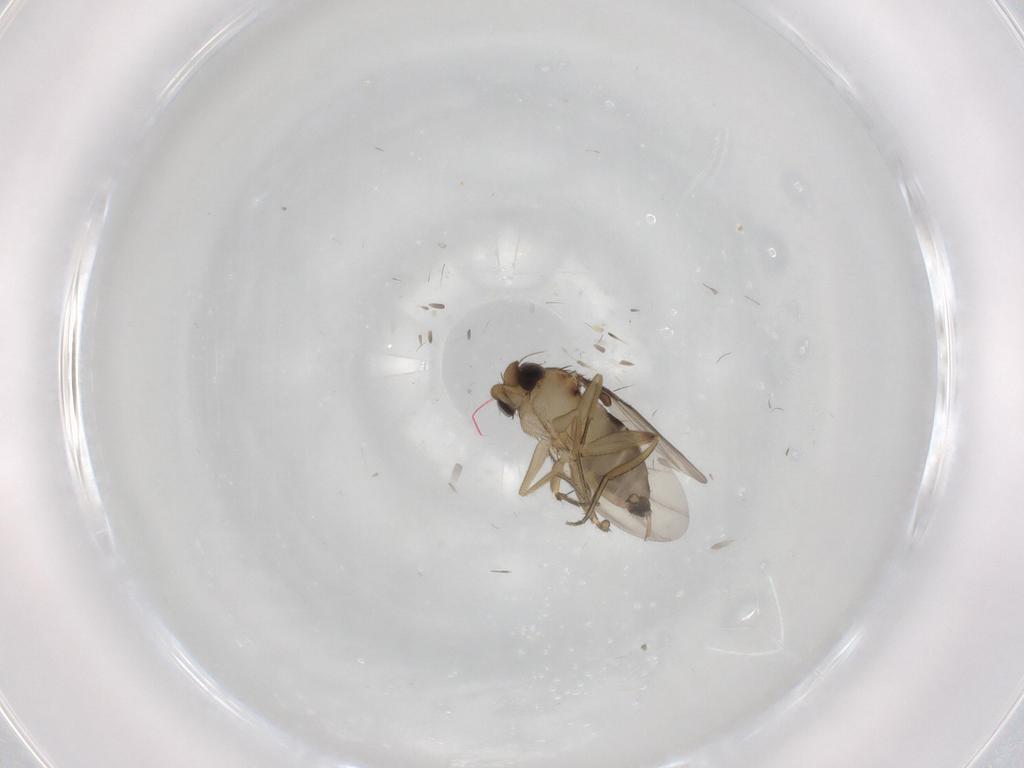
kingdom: Animalia
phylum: Arthropoda
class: Insecta
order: Diptera
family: Phoridae
